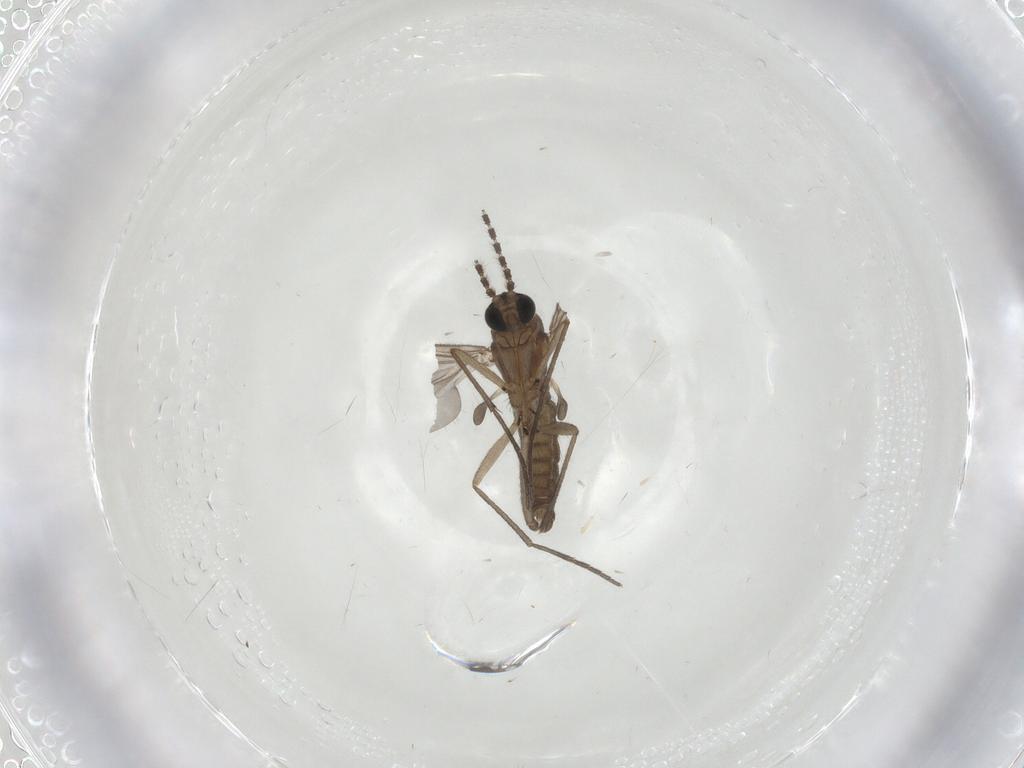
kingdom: Animalia
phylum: Arthropoda
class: Insecta
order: Diptera
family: Sciaridae
